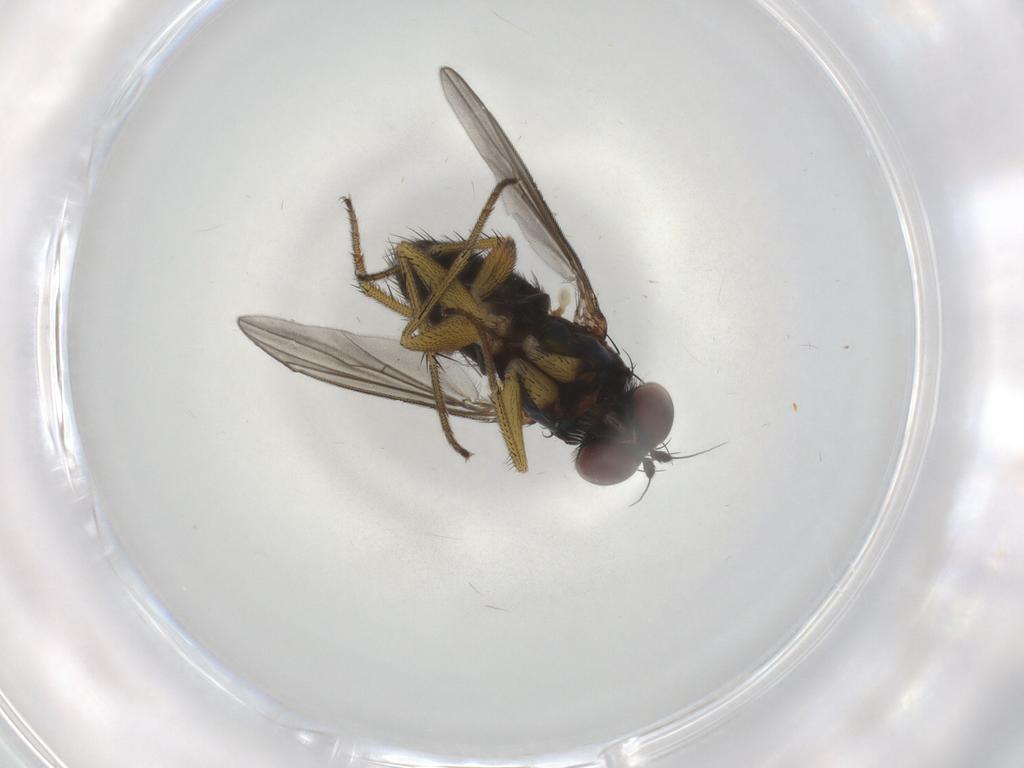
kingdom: Animalia
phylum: Arthropoda
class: Insecta
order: Diptera
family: Dolichopodidae
